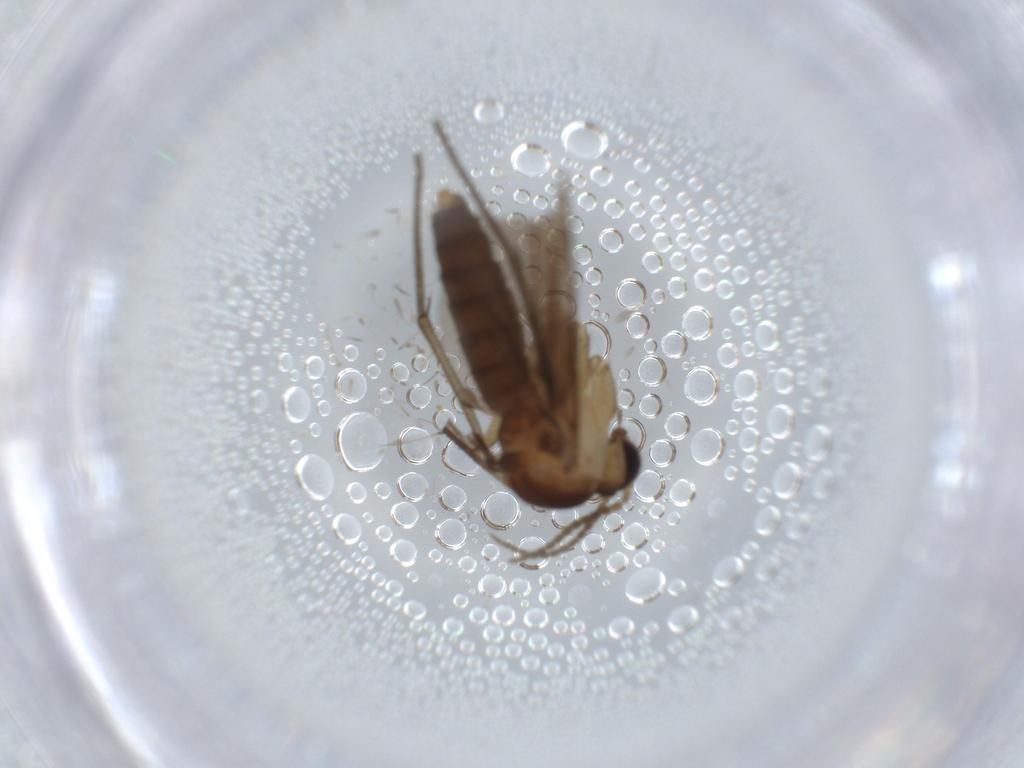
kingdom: Animalia
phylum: Arthropoda
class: Insecta
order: Diptera
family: Diadocidiidae
